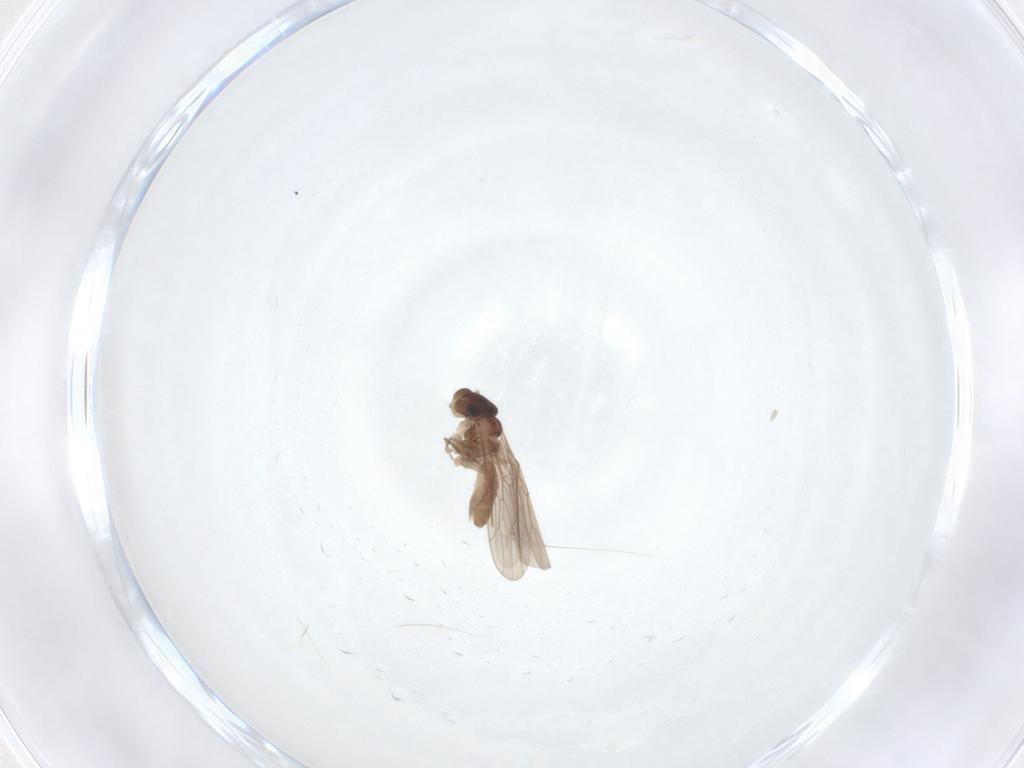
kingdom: Animalia
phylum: Arthropoda
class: Insecta
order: Psocodea
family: Lepidopsocidae
